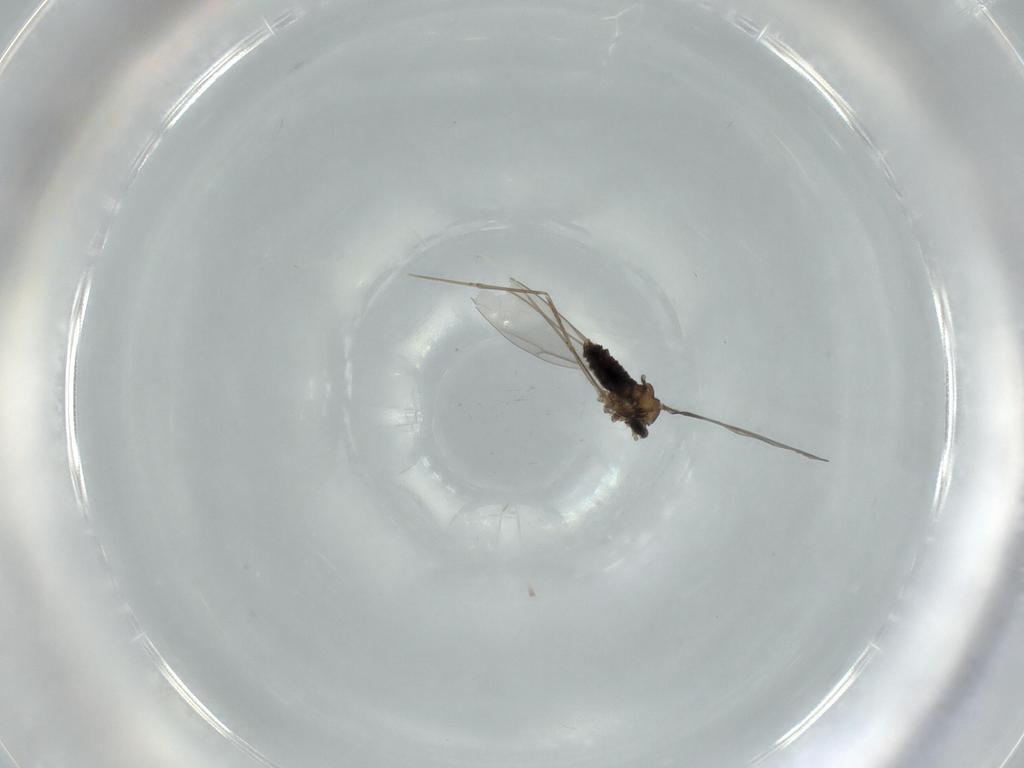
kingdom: Animalia
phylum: Arthropoda
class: Insecta
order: Diptera
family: Cecidomyiidae
